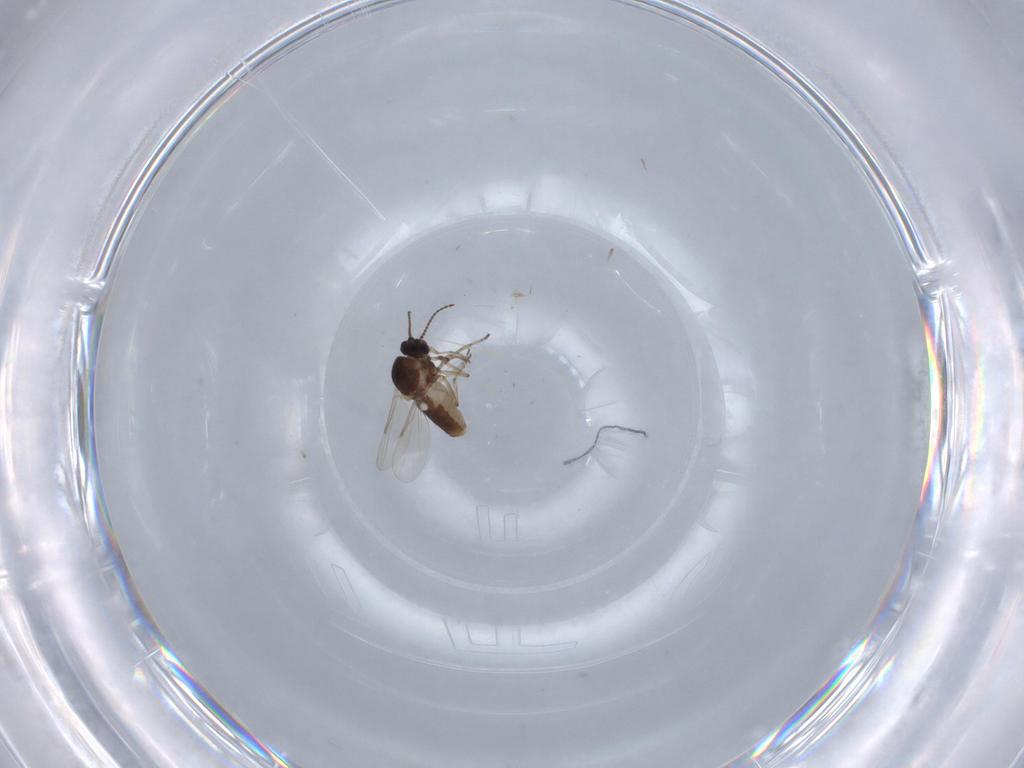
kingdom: Animalia
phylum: Arthropoda
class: Insecta
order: Diptera
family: Ceratopogonidae
